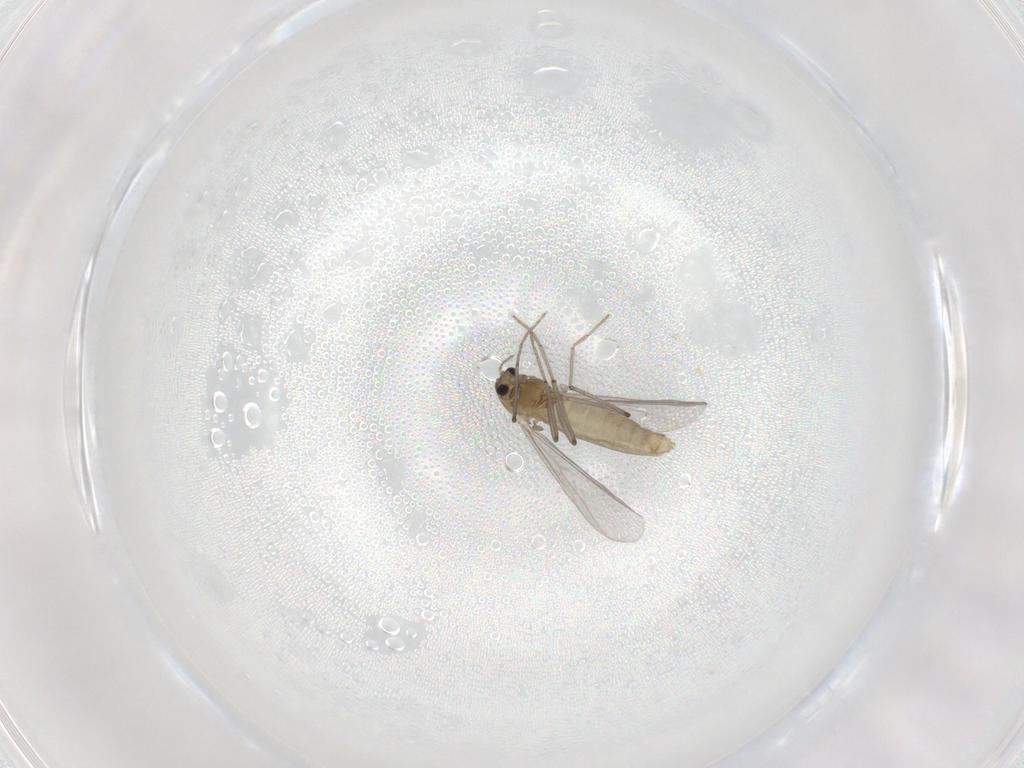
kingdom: Animalia
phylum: Arthropoda
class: Insecta
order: Diptera
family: Chironomidae
